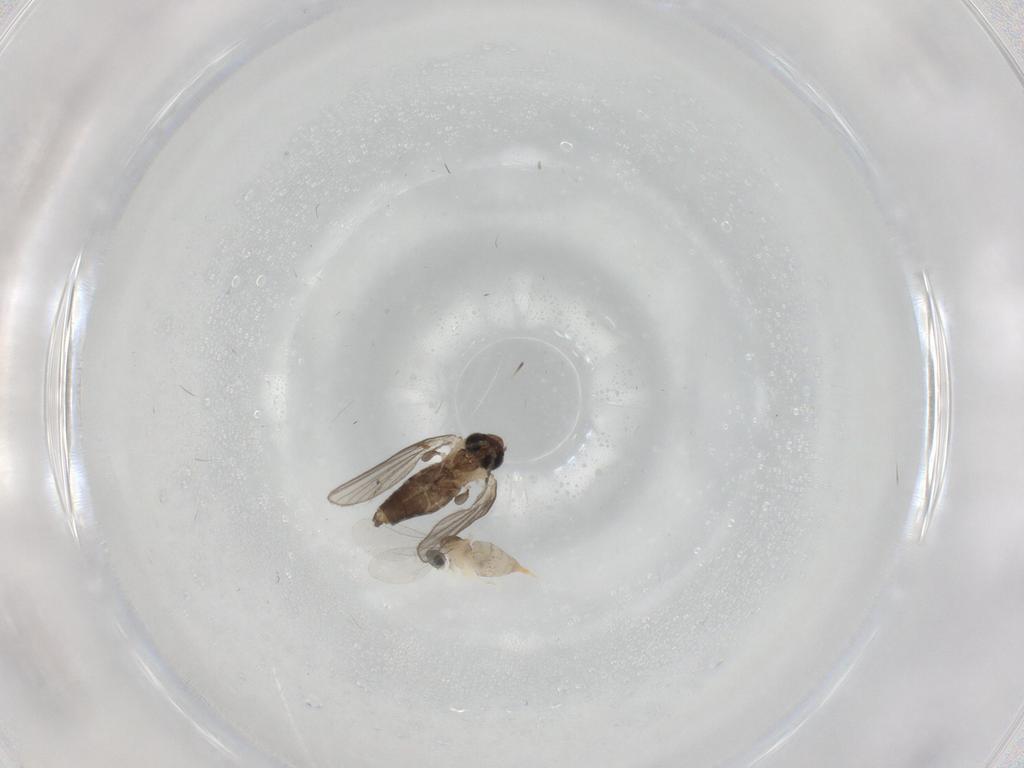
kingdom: Animalia
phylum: Arthropoda
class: Insecta
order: Diptera
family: Psychodidae
